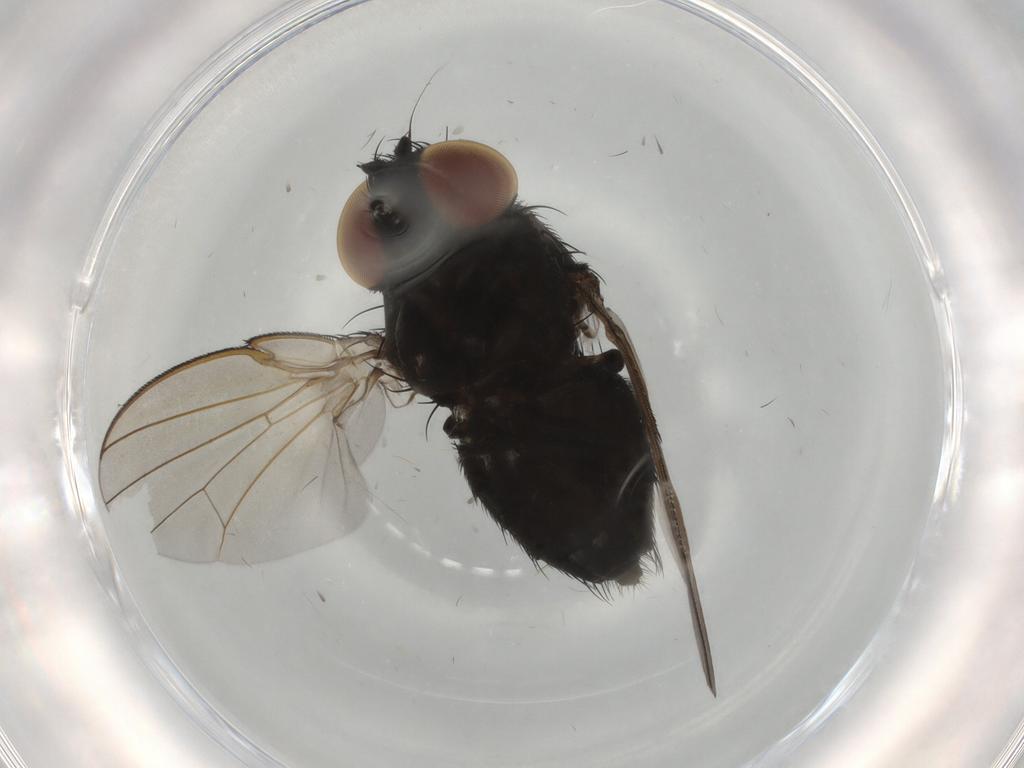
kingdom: Animalia
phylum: Arthropoda
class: Insecta
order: Diptera
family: Milichiidae
